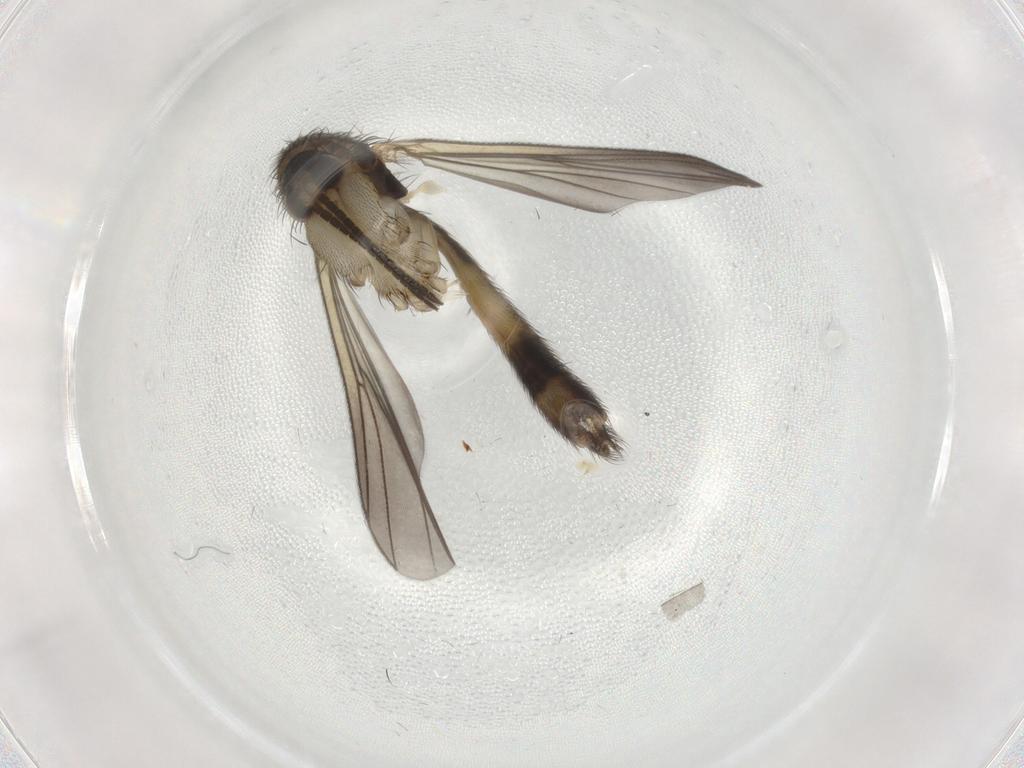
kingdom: Animalia
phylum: Arthropoda
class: Insecta
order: Diptera
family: Lauxaniidae
